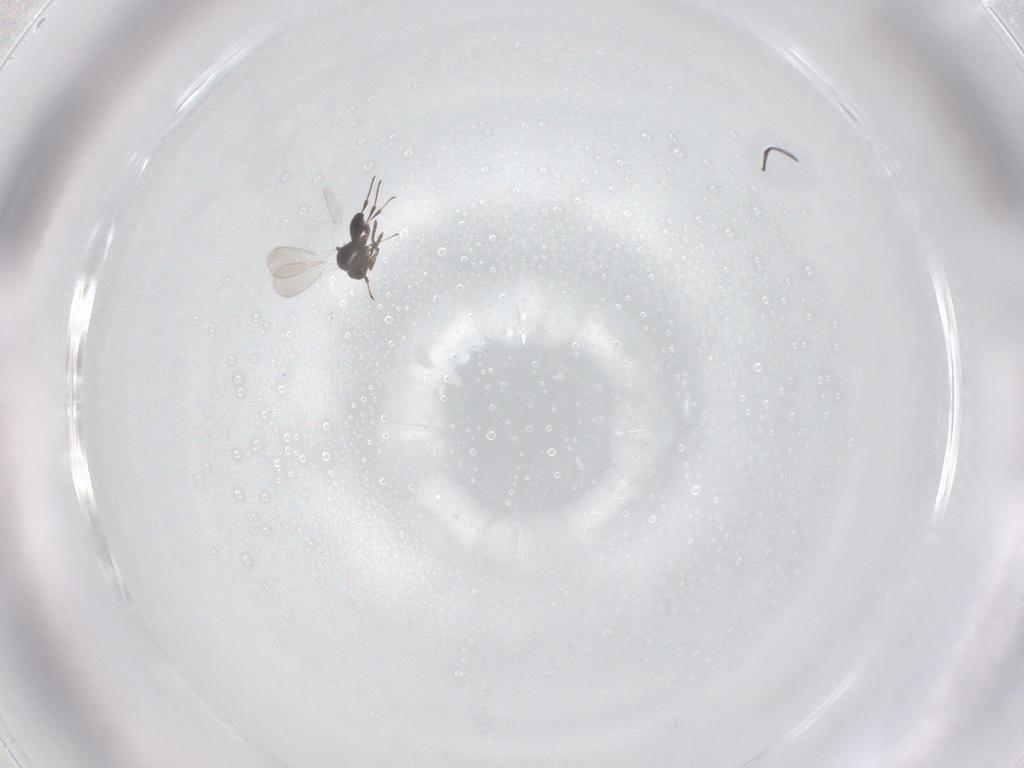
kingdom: Animalia
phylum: Arthropoda
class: Insecta
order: Hymenoptera
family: Platygastridae
